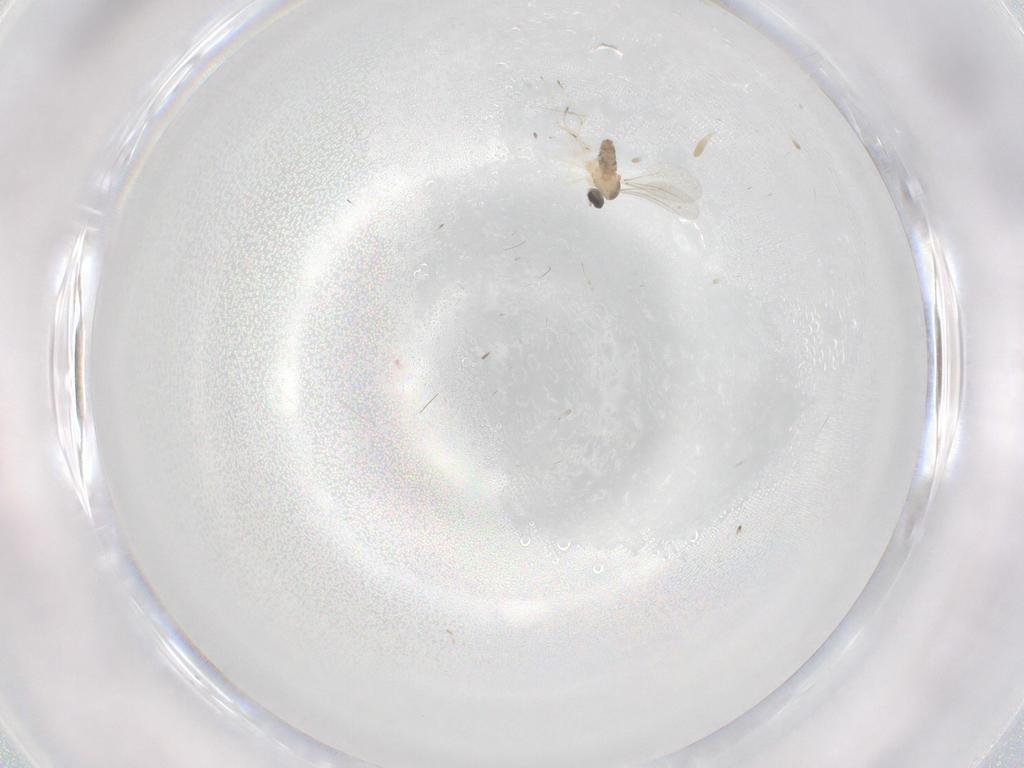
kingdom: Animalia
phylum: Arthropoda
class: Insecta
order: Diptera
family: Cecidomyiidae
